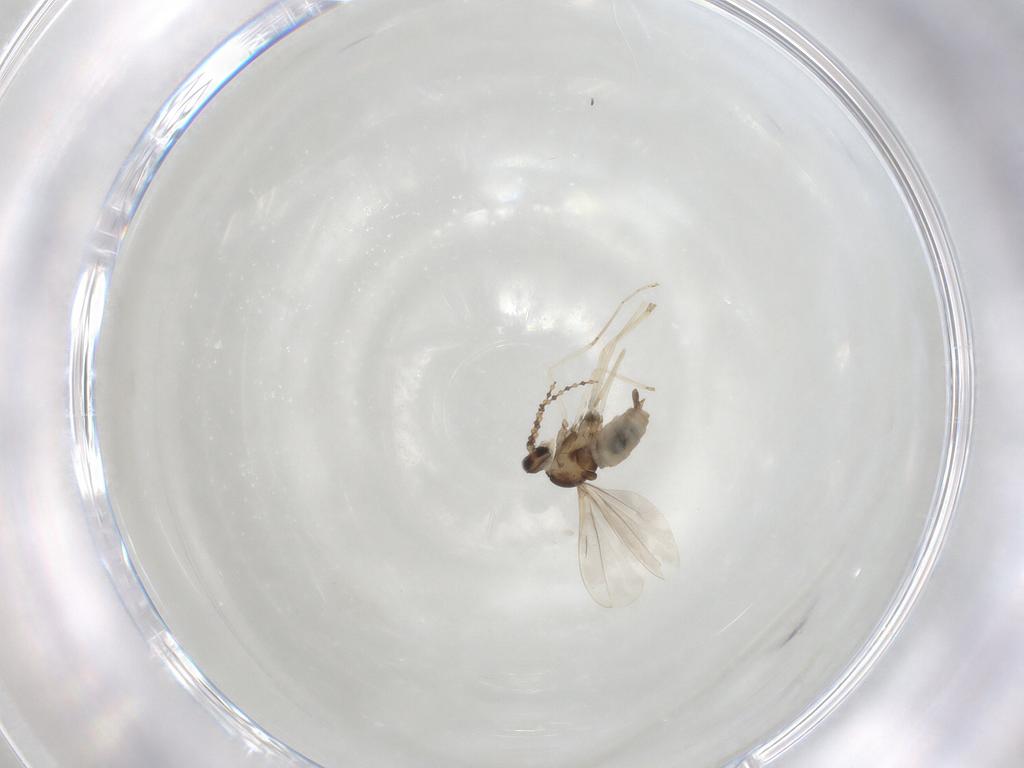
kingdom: Animalia
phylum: Arthropoda
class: Insecta
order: Diptera
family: Cecidomyiidae
